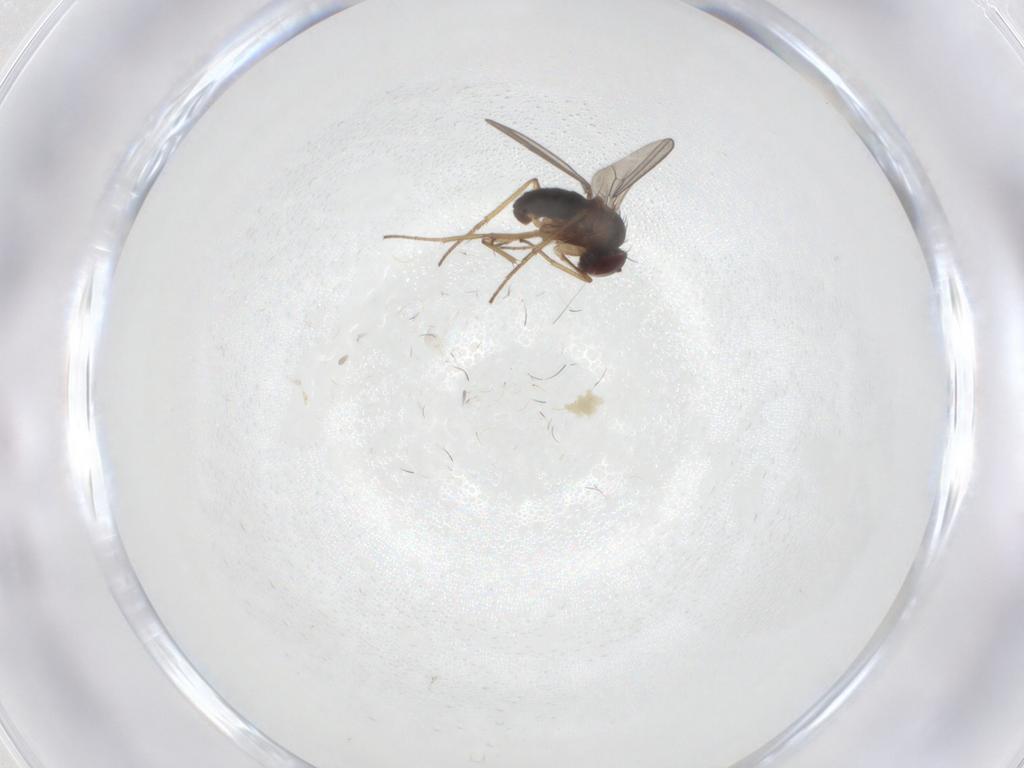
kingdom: Animalia
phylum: Arthropoda
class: Insecta
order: Diptera
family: Dolichopodidae
